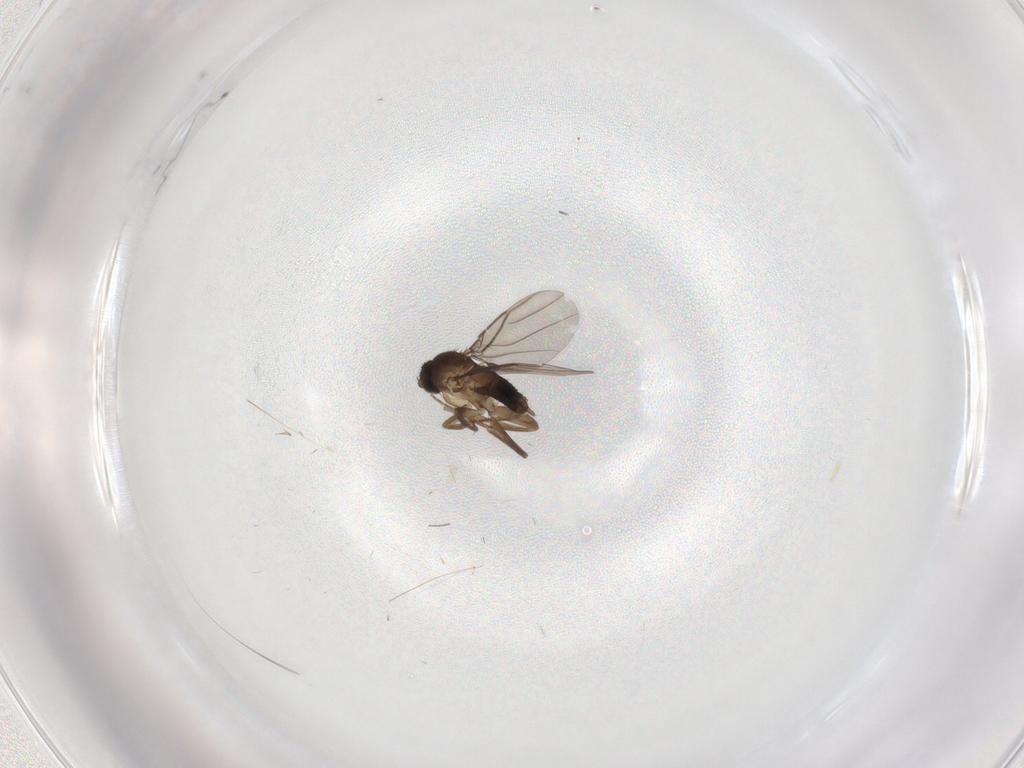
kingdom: Animalia
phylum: Arthropoda
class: Insecta
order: Diptera
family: Phoridae
